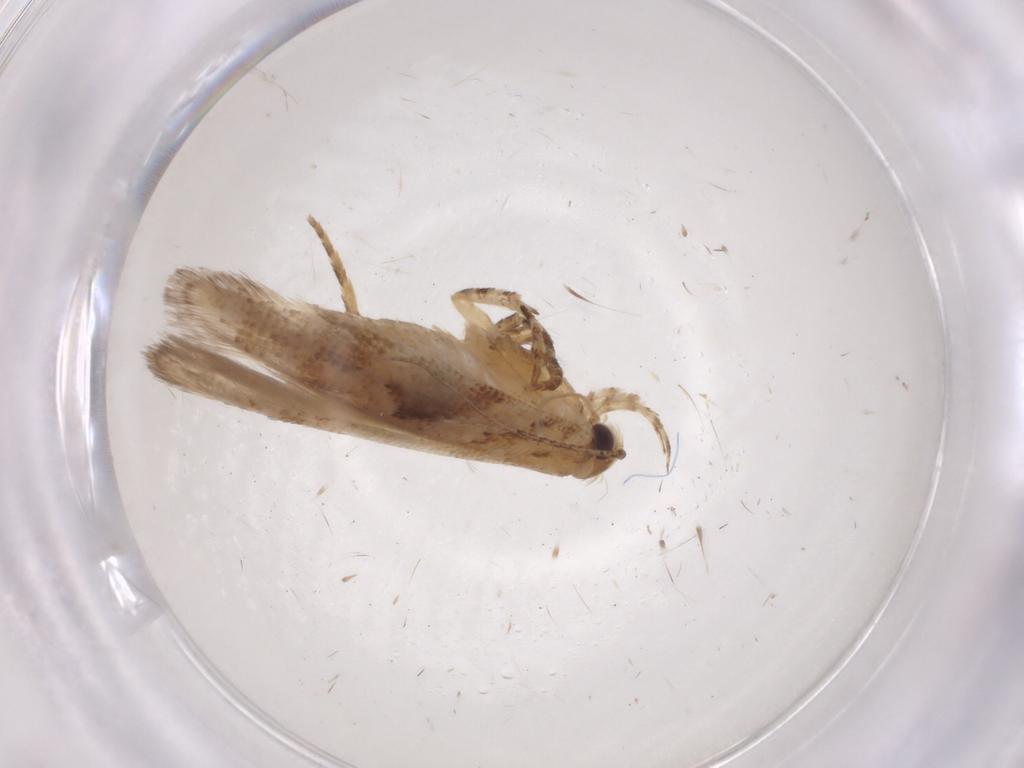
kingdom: Animalia
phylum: Arthropoda
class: Insecta
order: Lepidoptera
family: Gelechiidae
